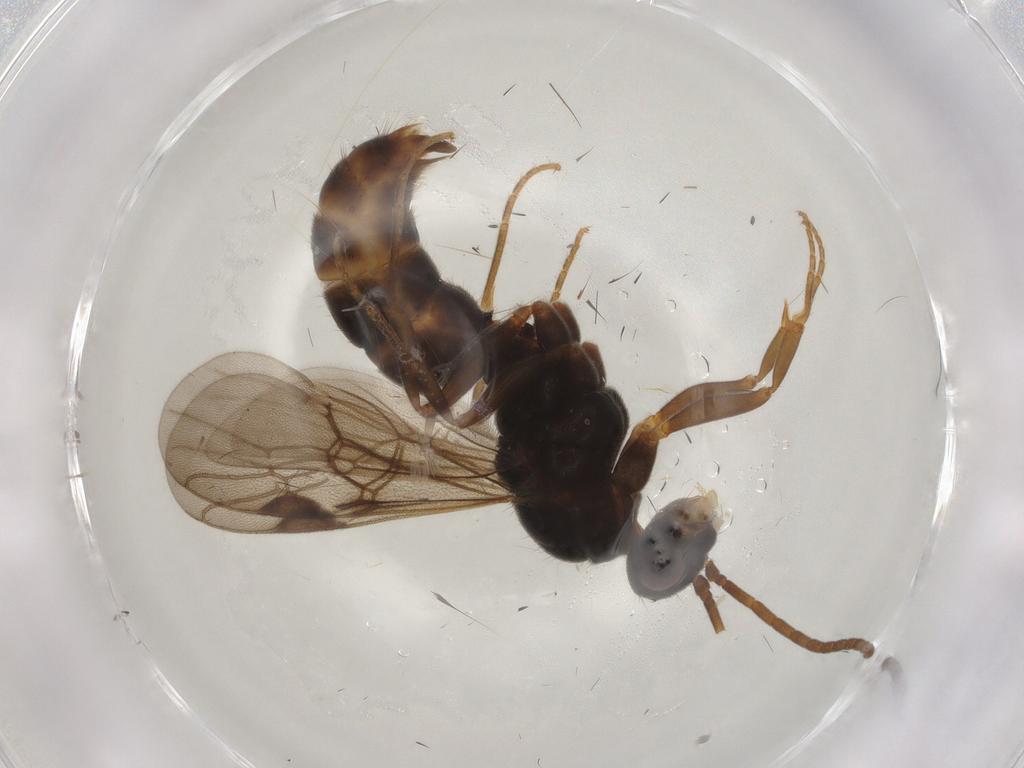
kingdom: Animalia
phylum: Arthropoda
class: Insecta
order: Hymenoptera
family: Formicidae
